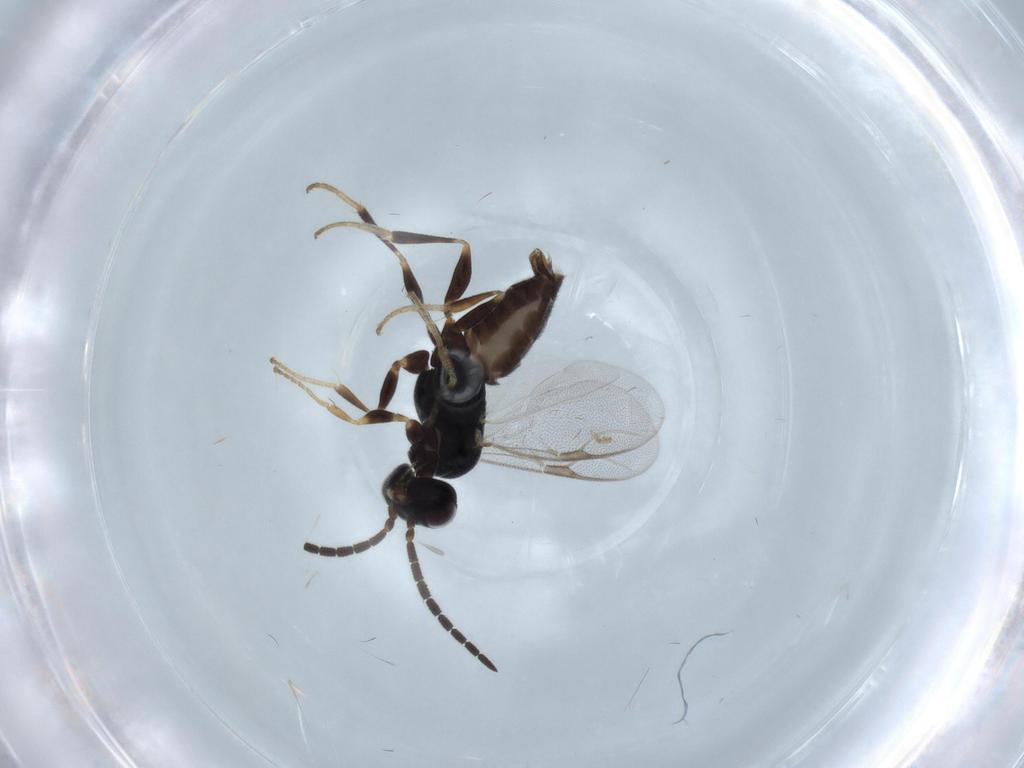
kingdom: Animalia
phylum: Arthropoda
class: Insecta
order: Hymenoptera
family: Dryinidae
